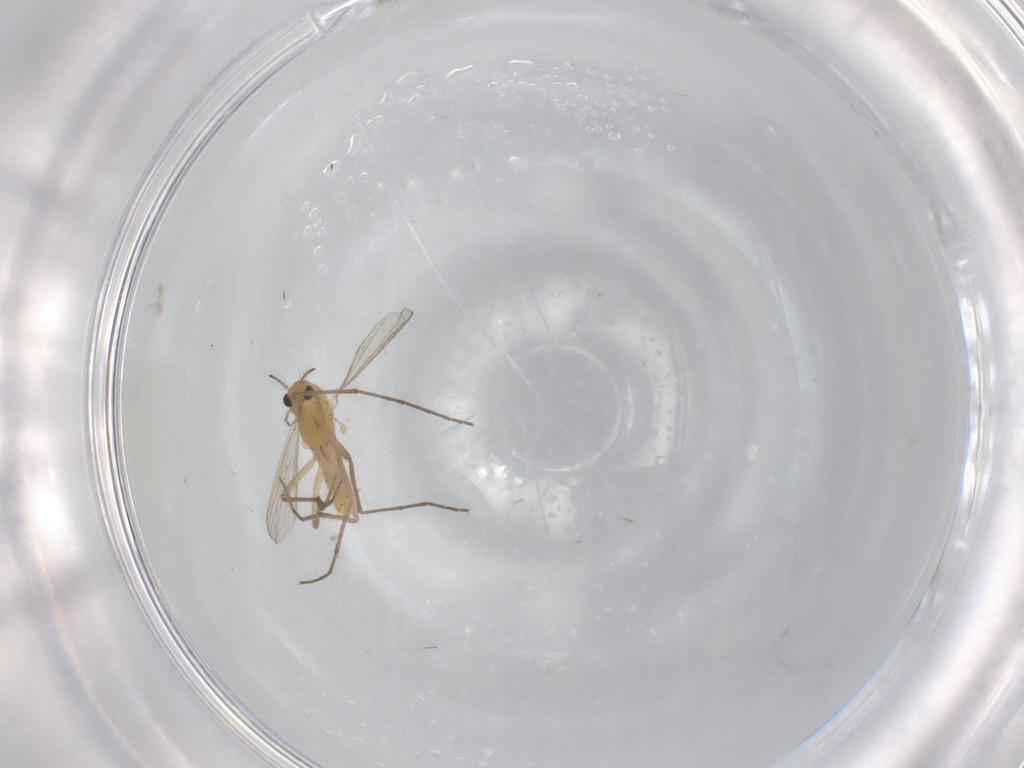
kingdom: Animalia
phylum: Arthropoda
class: Insecta
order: Diptera
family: Chironomidae
